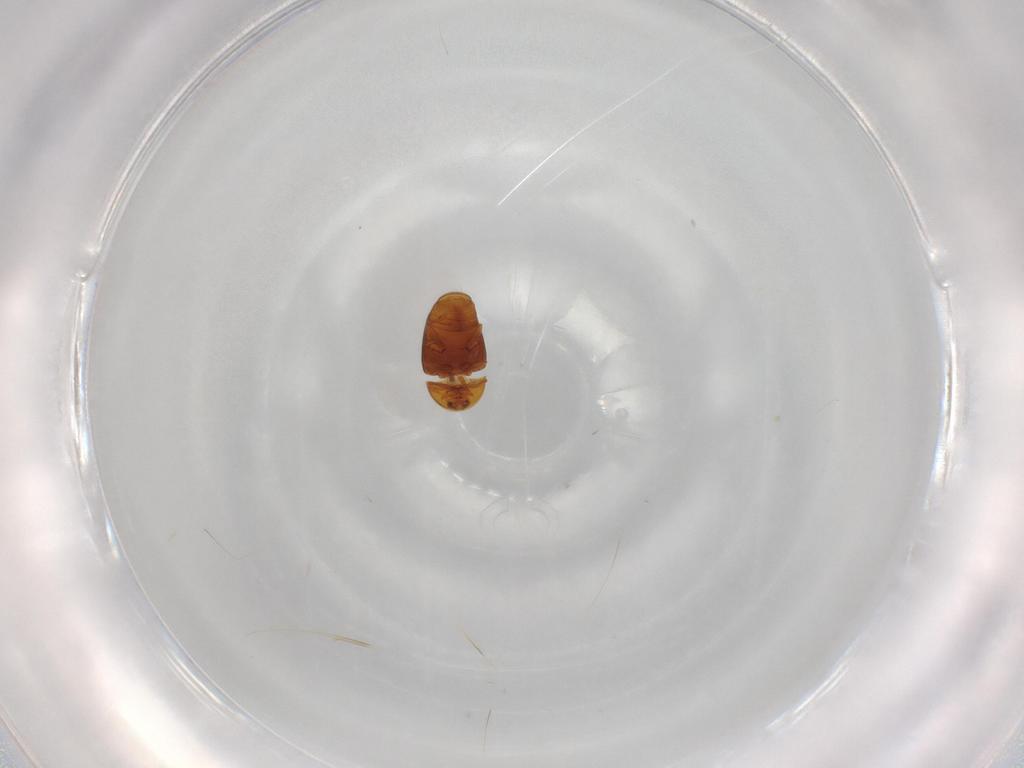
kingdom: Animalia
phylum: Arthropoda
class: Insecta
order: Coleoptera
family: Corylophidae
